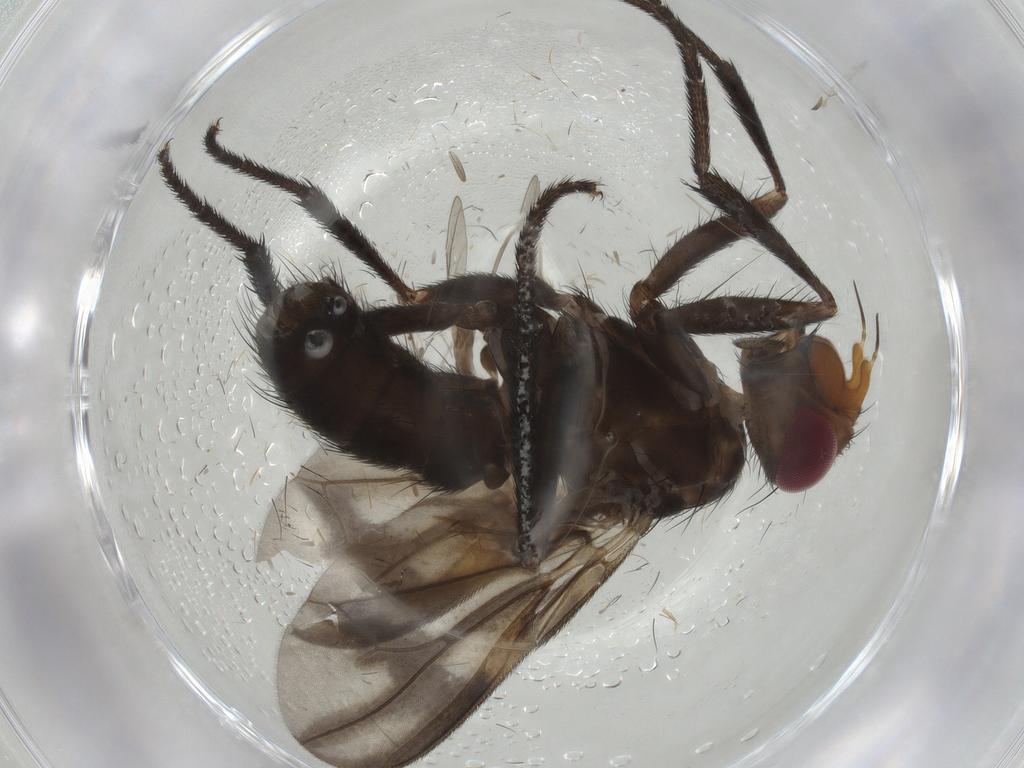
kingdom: Animalia
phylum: Arthropoda
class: Insecta
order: Diptera
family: Calliphoridae
